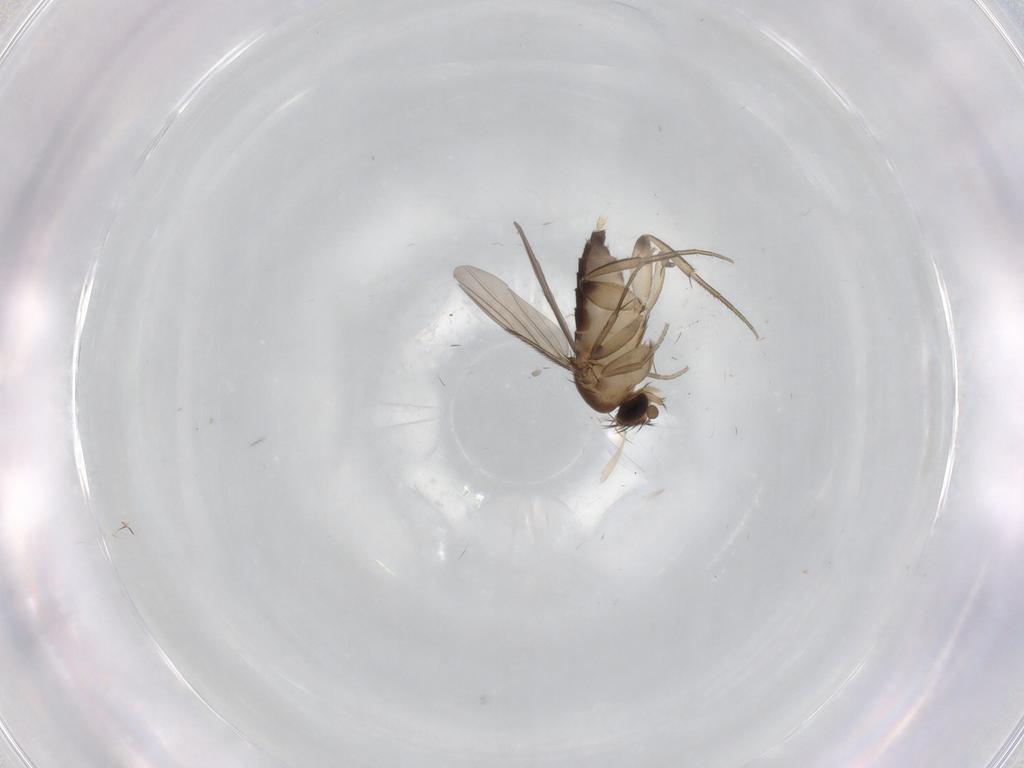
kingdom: Animalia
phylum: Arthropoda
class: Insecta
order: Diptera
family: Phoridae
